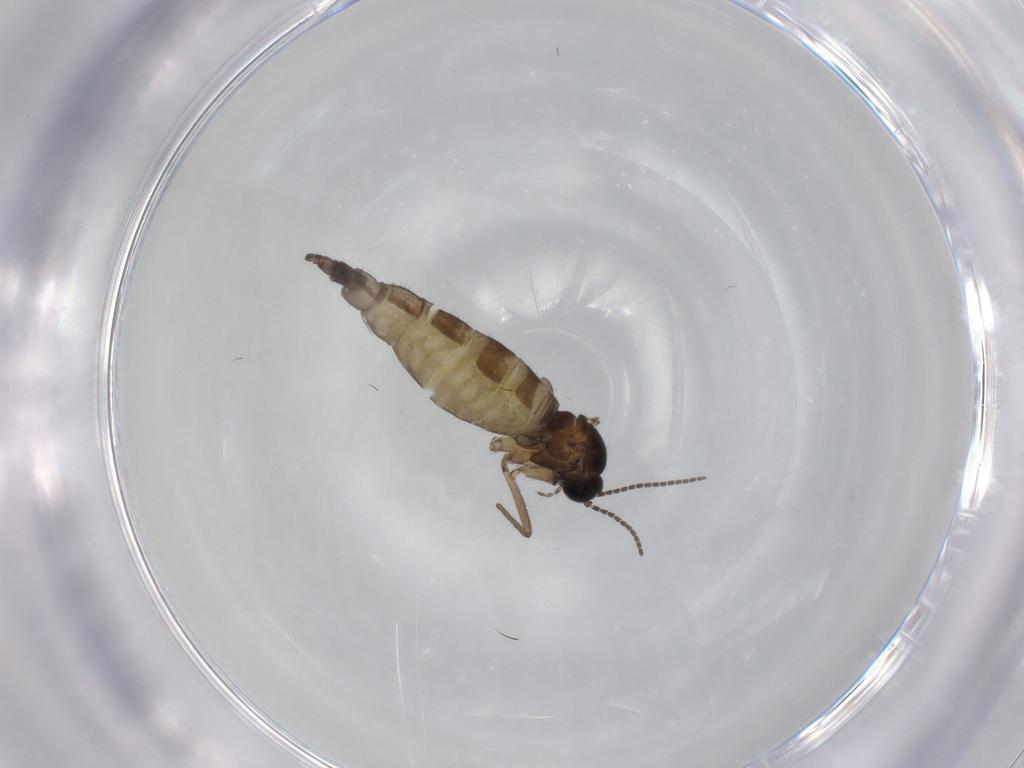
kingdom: Animalia
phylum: Arthropoda
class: Insecta
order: Diptera
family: Sciaridae
